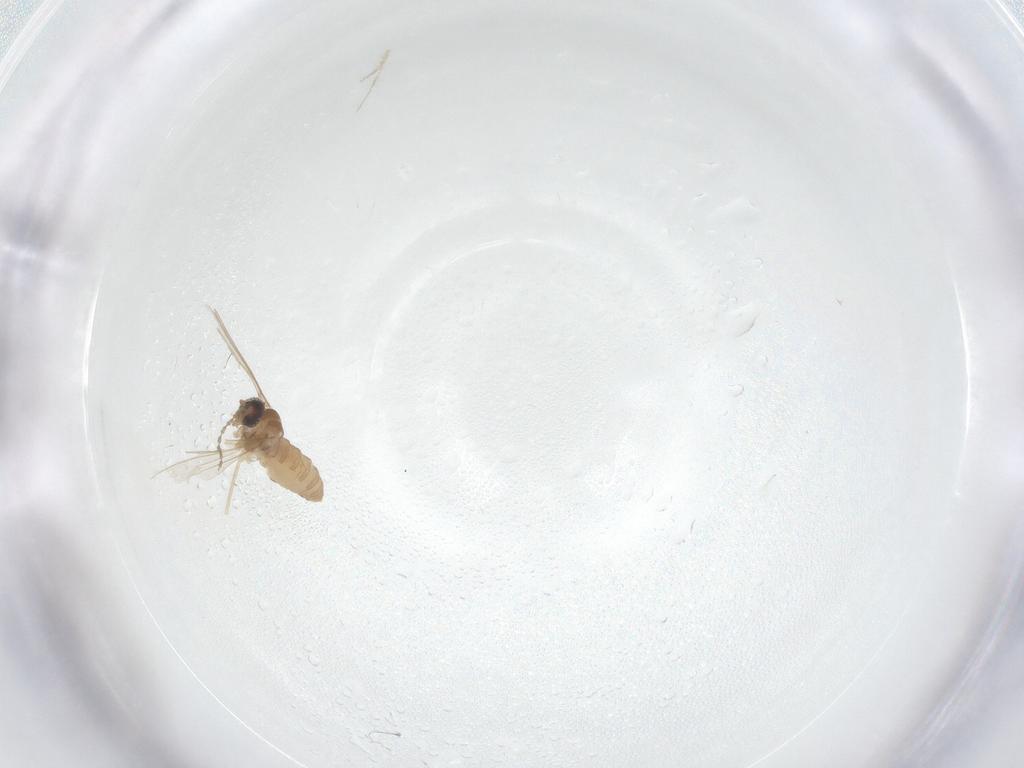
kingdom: Animalia
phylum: Arthropoda
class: Insecta
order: Diptera
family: Cecidomyiidae
